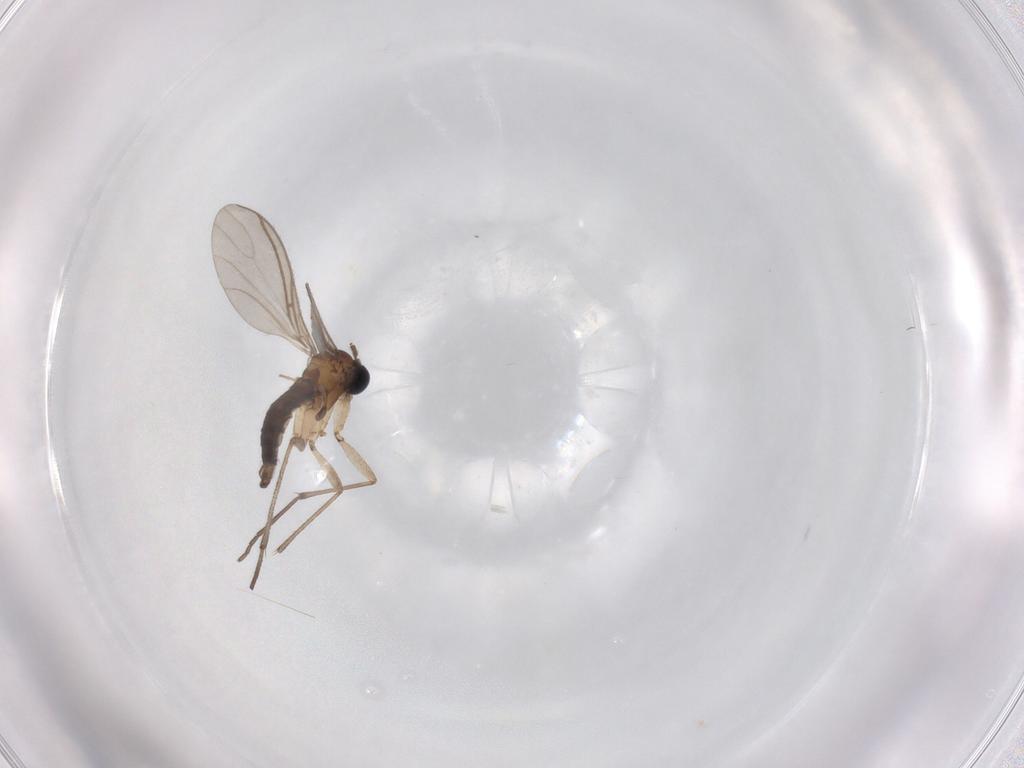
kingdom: Animalia
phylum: Arthropoda
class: Insecta
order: Diptera
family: Sciaridae
